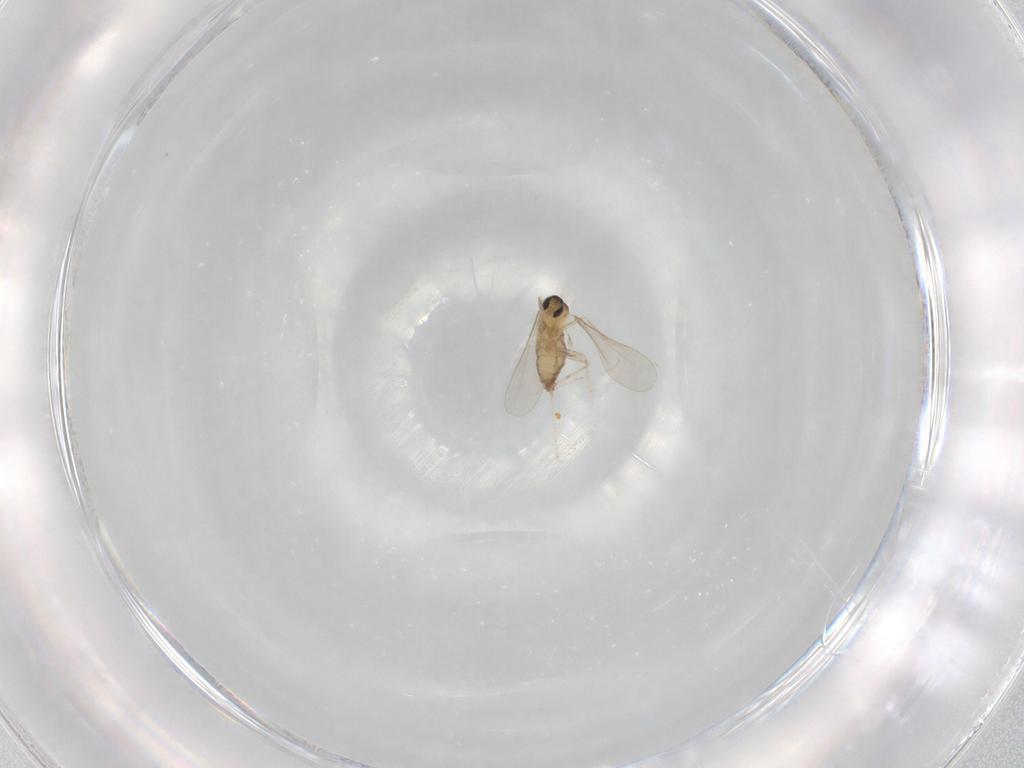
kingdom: Animalia
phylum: Arthropoda
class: Insecta
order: Diptera
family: Cecidomyiidae
